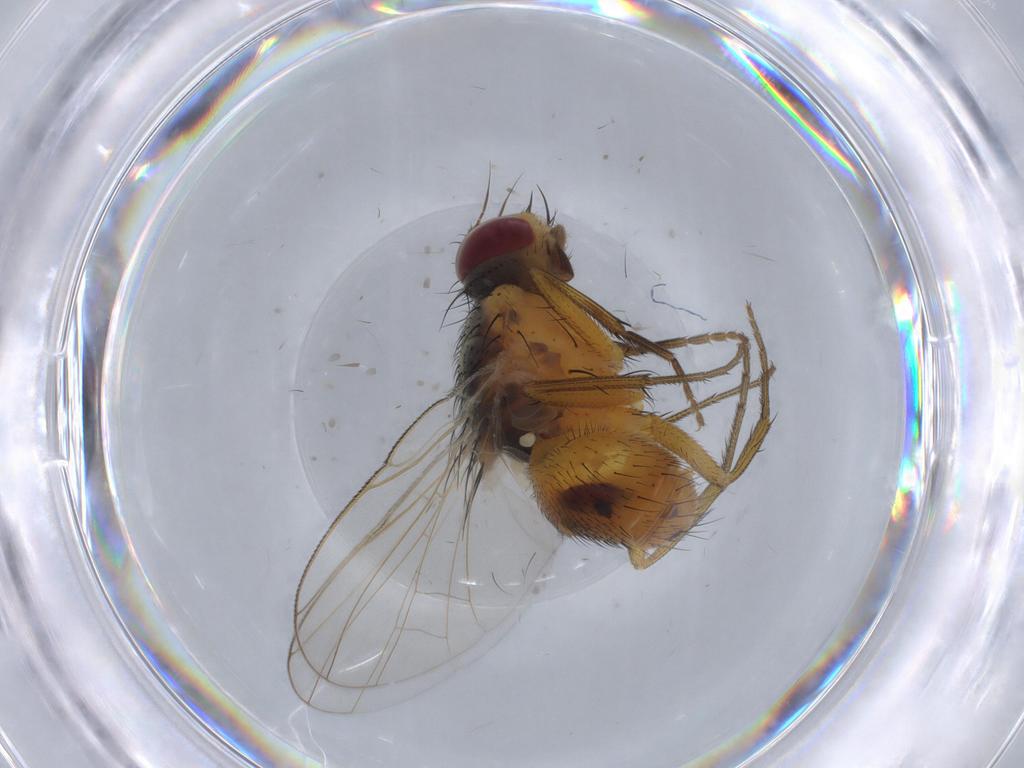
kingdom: Animalia
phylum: Arthropoda
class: Insecta
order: Diptera
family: Muscidae
